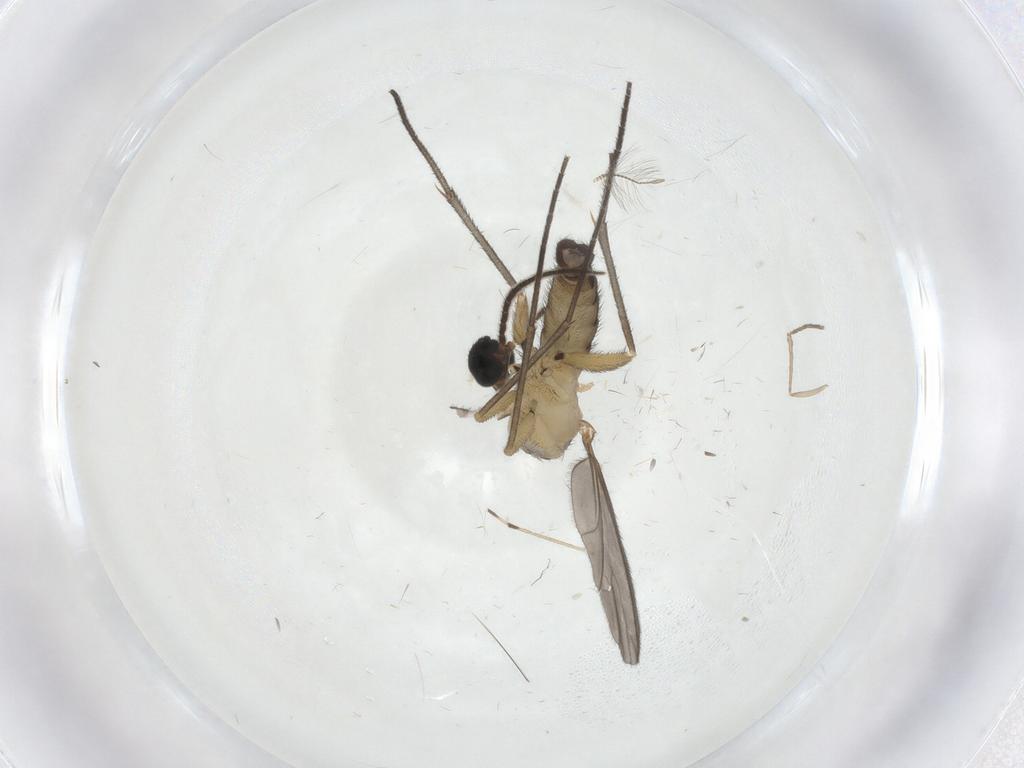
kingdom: Animalia
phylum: Arthropoda
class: Insecta
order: Diptera
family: Sciaridae
